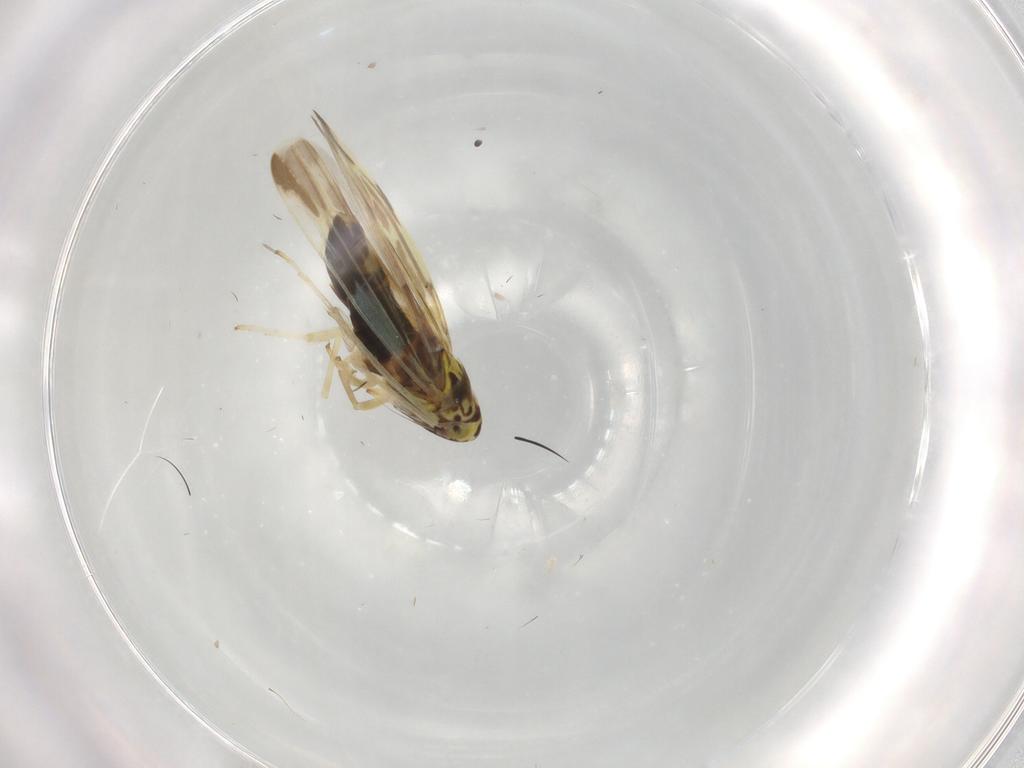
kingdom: Animalia
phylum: Arthropoda
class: Insecta
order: Hemiptera
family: Cicadellidae
